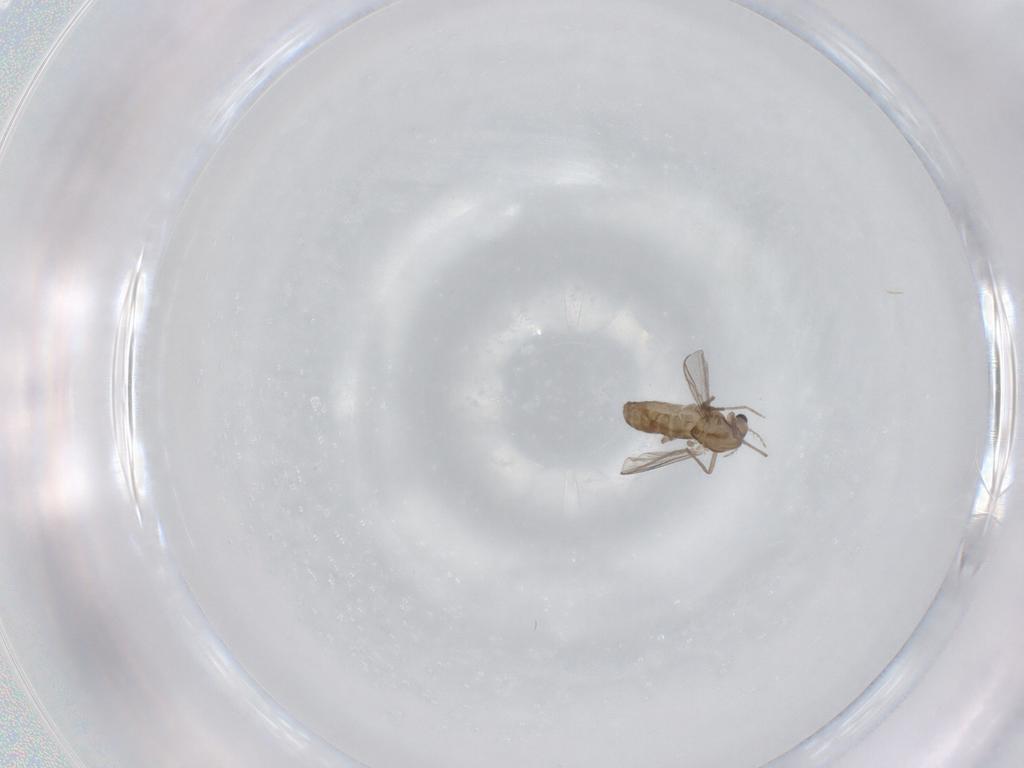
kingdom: Animalia
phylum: Arthropoda
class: Insecta
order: Diptera
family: Chironomidae
